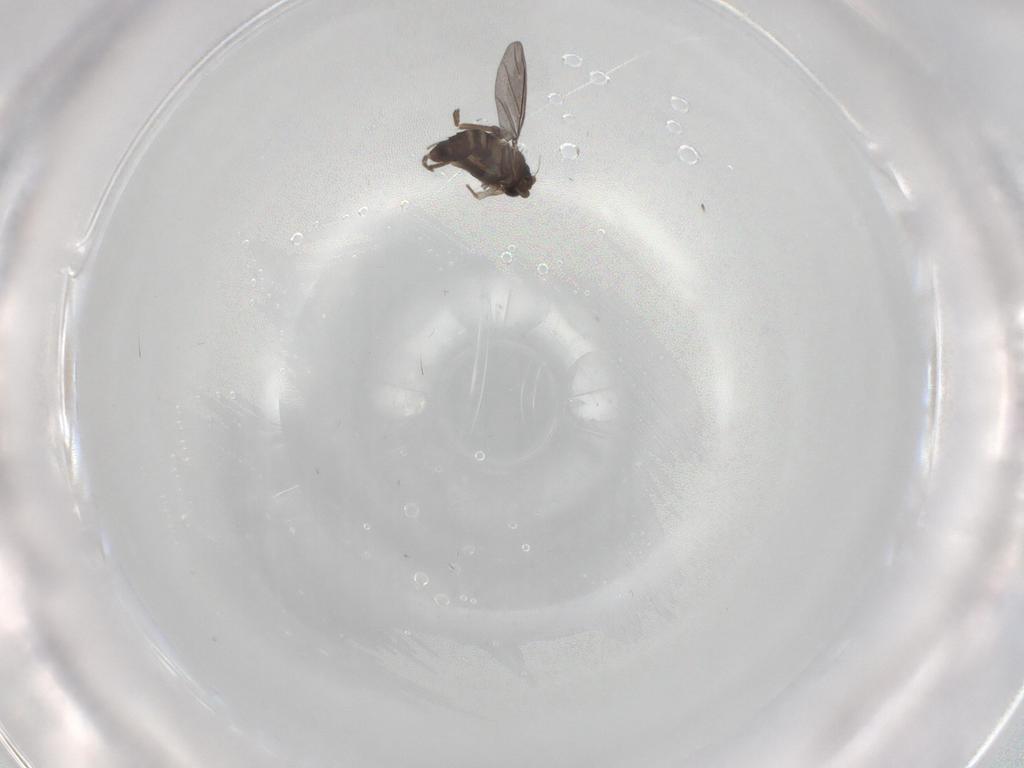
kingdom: Animalia
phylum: Arthropoda
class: Insecta
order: Diptera
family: Phoridae
